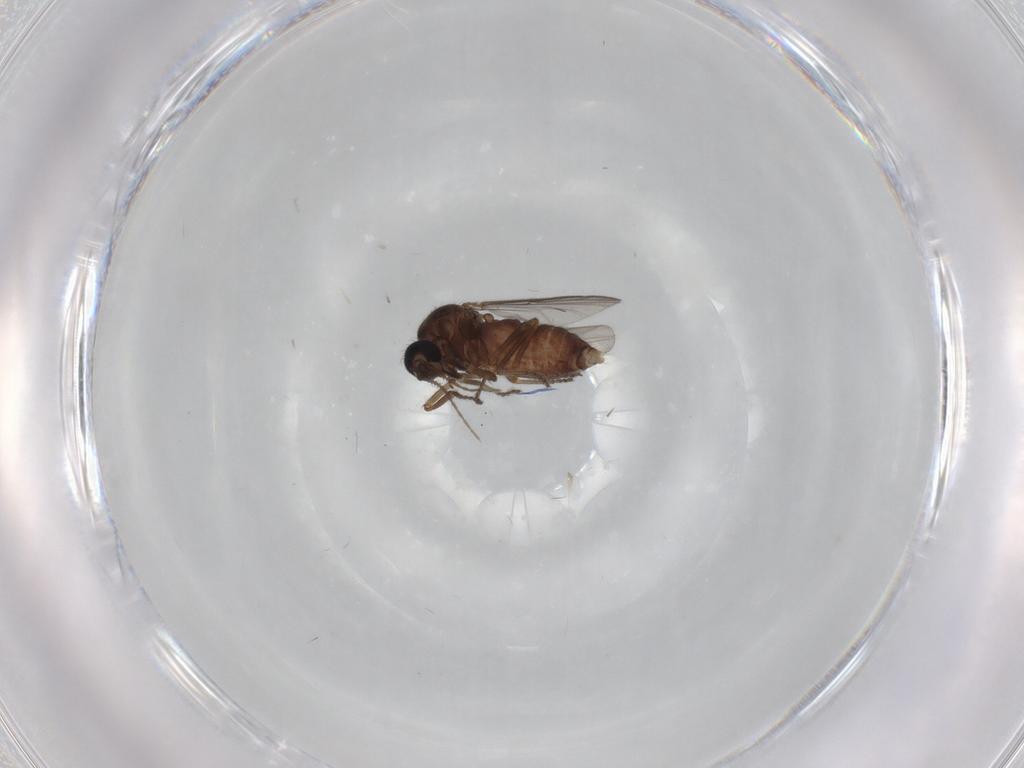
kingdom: Animalia
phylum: Arthropoda
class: Insecta
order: Diptera
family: Ceratopogonidae
